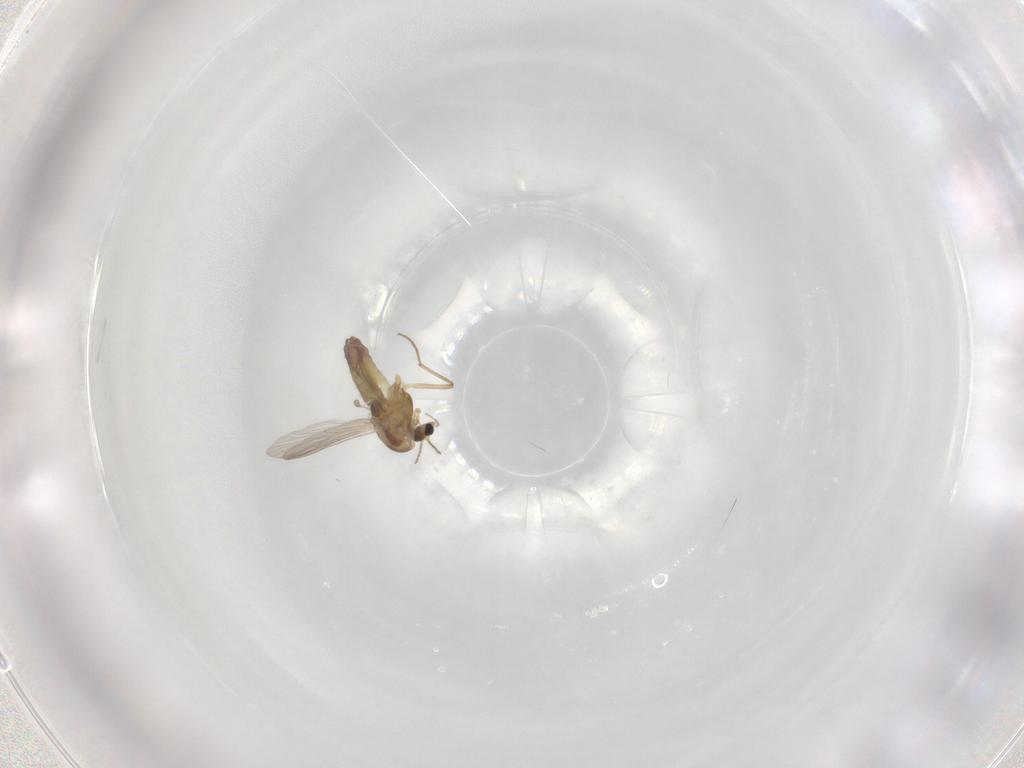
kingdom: Animalia
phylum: Arthropoda
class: Insecta
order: Diptera
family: Chironomidae
